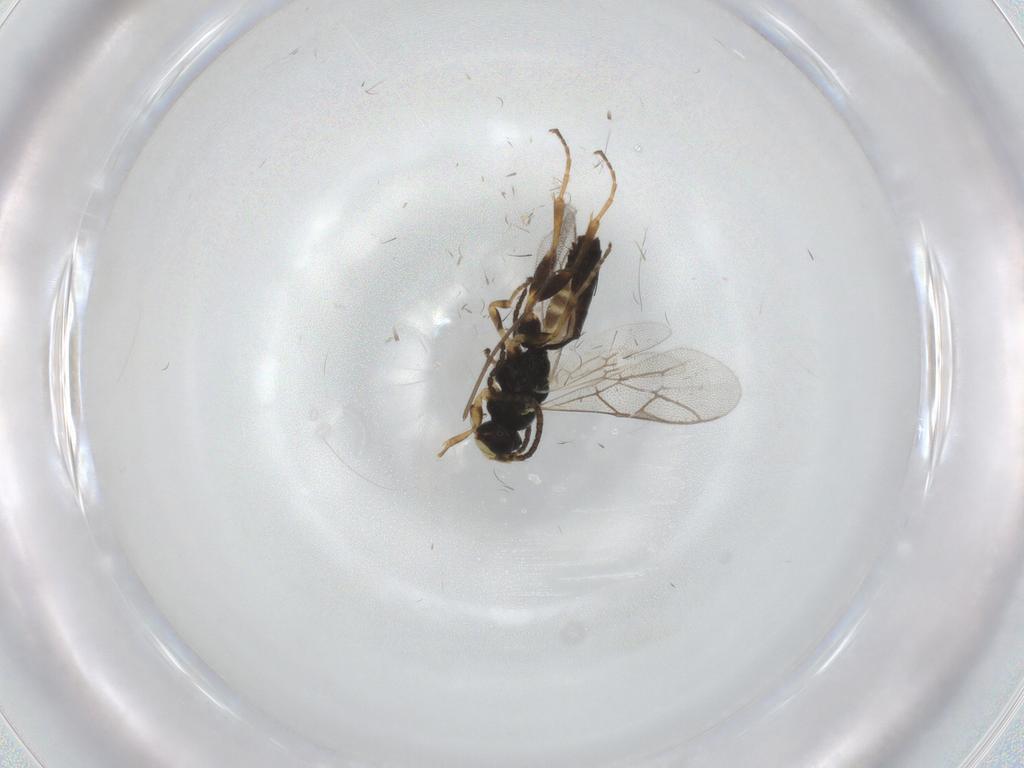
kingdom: Animalia
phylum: Arthropoda
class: Insecta
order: Hymenoptera
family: Ichneumonidae
